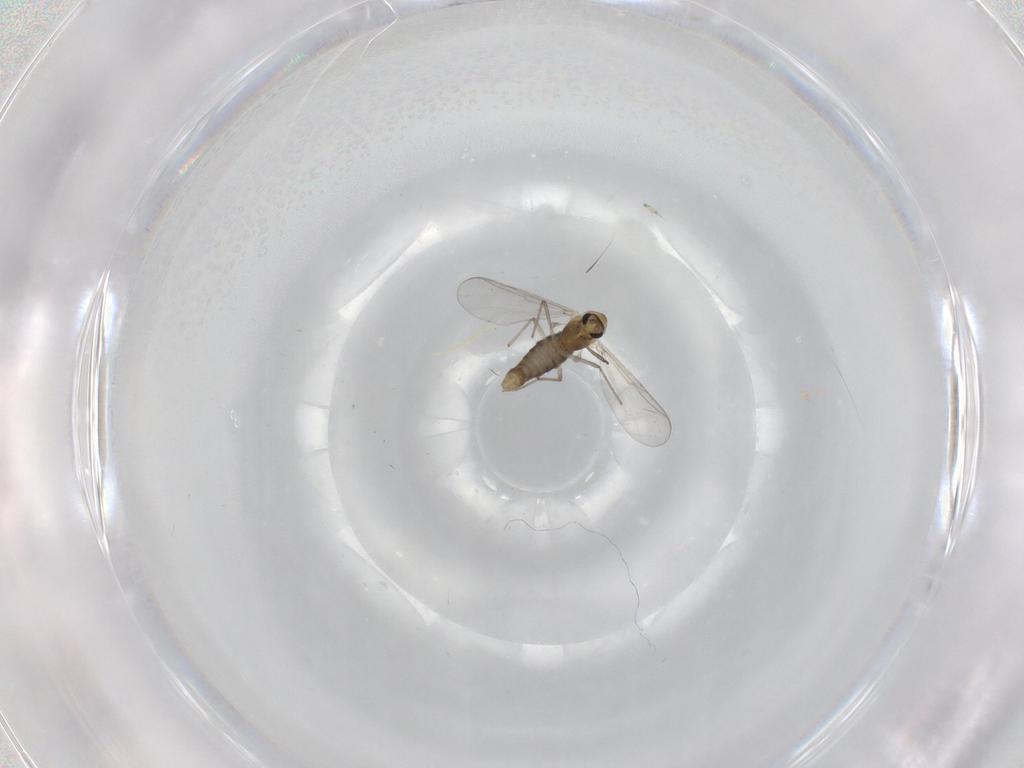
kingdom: Animalia
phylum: Arthropoda
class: Insecta
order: Diptera
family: Chironomidae
